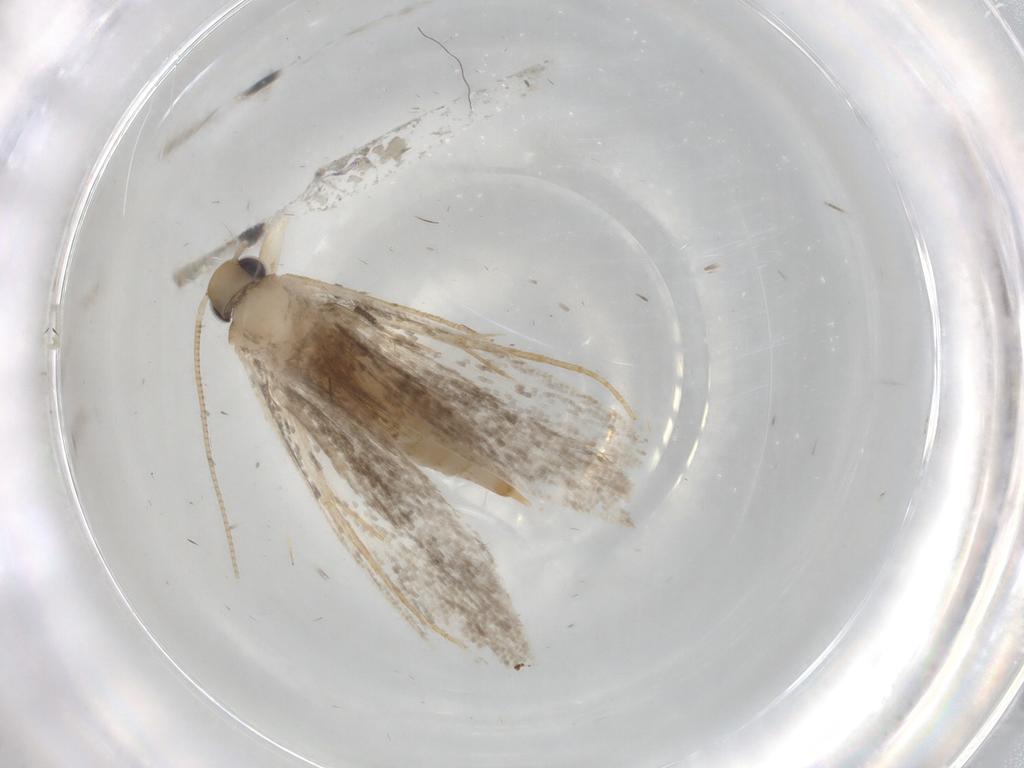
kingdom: Animalia
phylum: Arthropoda
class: Insecta
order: Lepidoptera
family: Tineidae
